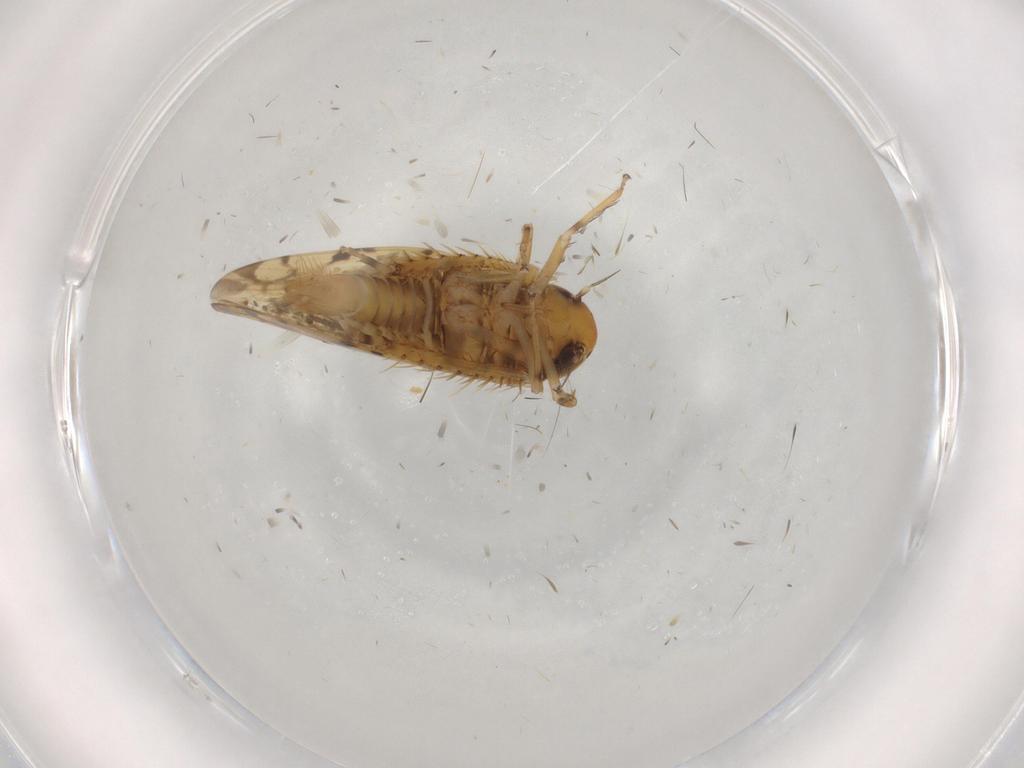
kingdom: Animalia
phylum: Arthropoda
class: Insecta
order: Hemiptera
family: Cicadellidae
